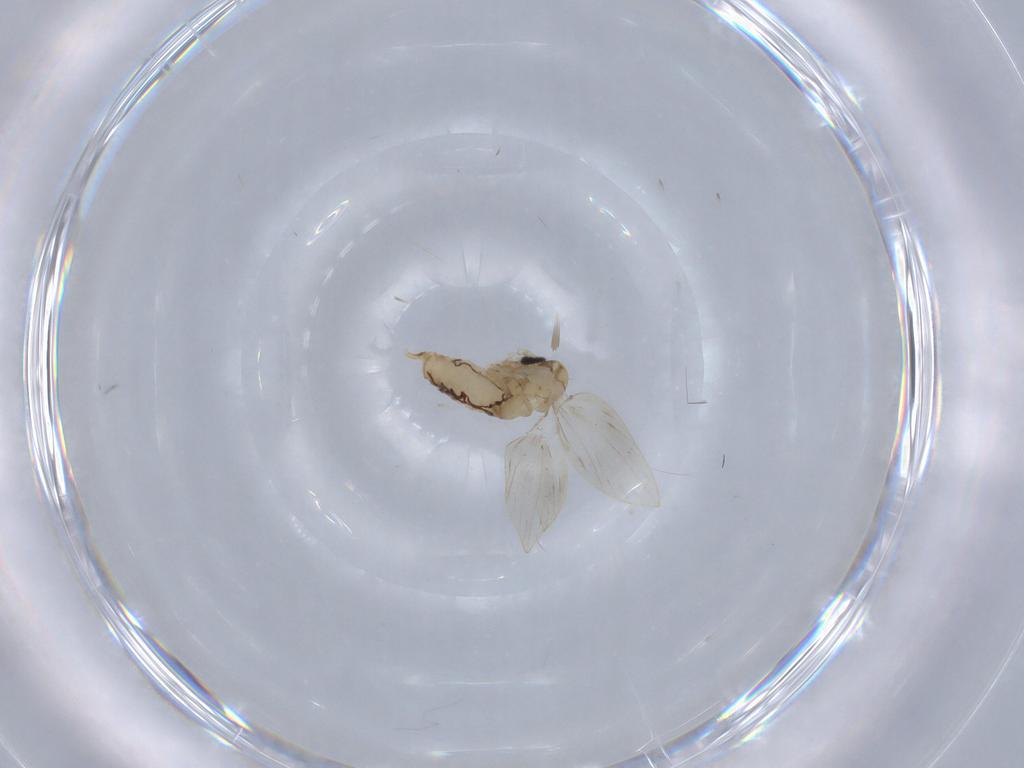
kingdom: Animalia
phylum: Arthropoda
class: Insecta
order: Diptera
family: Psychodidae
